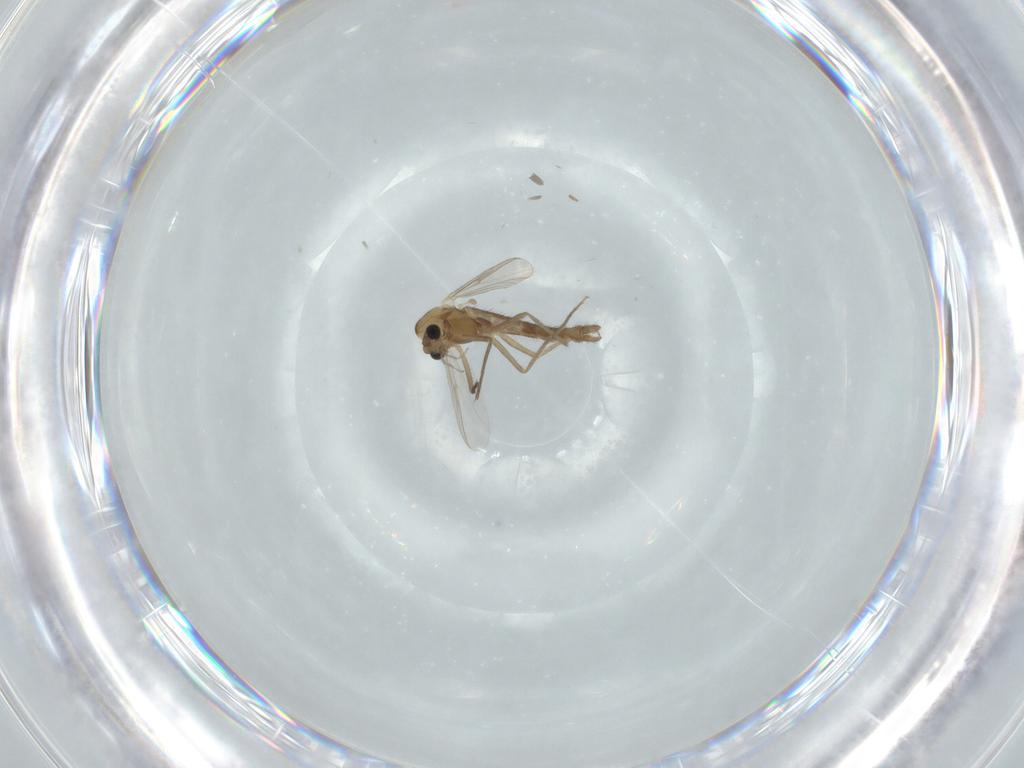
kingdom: Animalia
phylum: Arthropoda
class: Insecta
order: Diptera
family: Chironomidae
